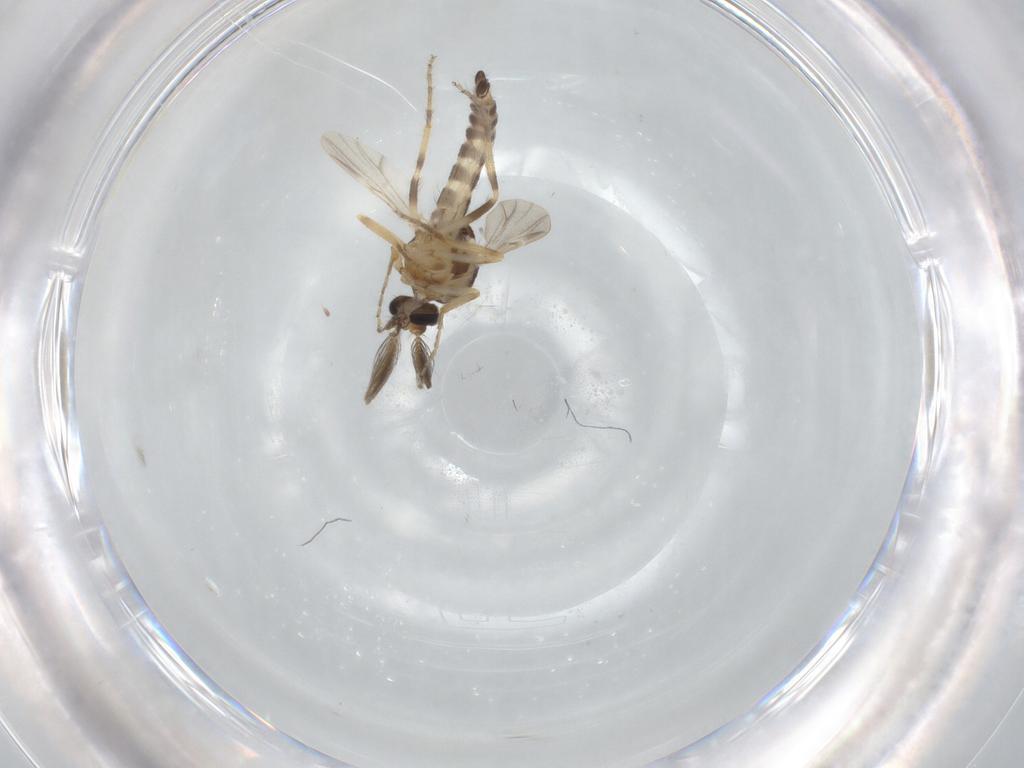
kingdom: Animalia
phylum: Arthropoda
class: Insecta
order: Diptera
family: Ceratopogonidae
